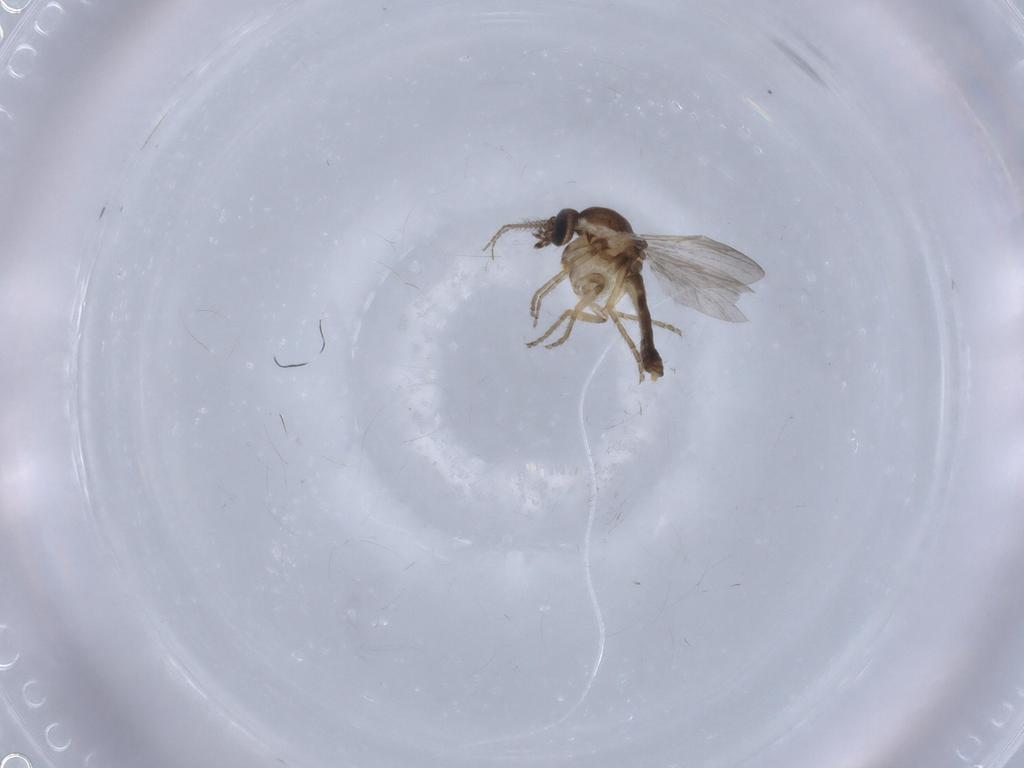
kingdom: Animalia
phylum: Arthropoda
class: Insecta
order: Diptera
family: Ceratopogonidae
